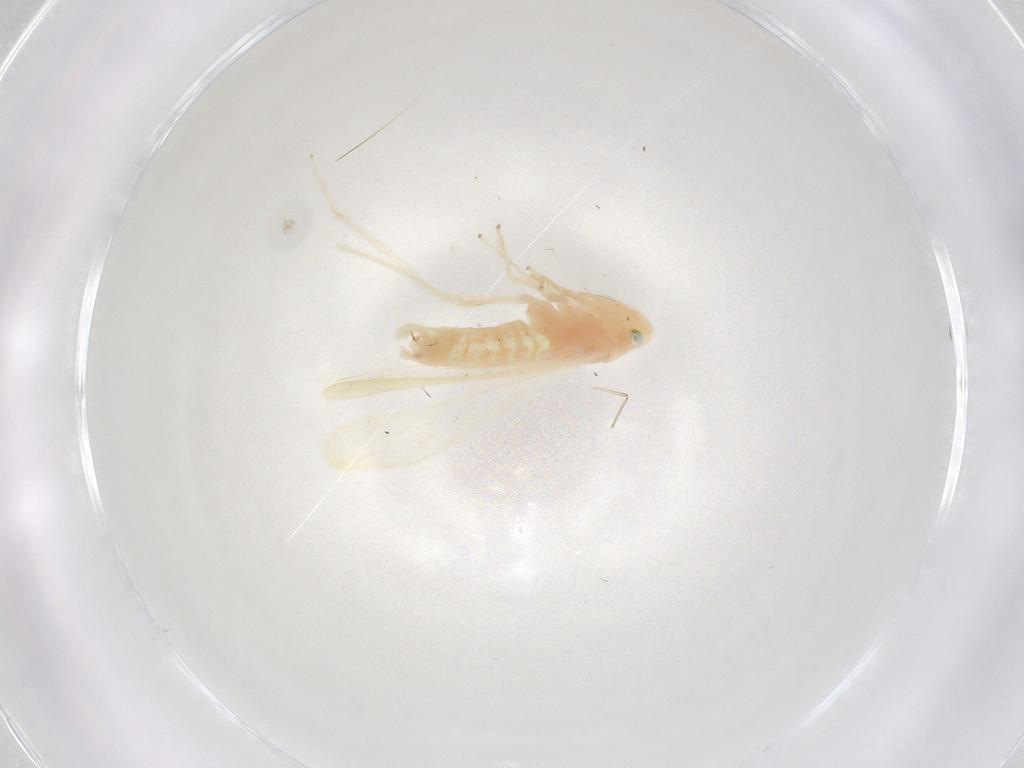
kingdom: Animalia
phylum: Arthropoda
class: Insecta
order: Hemiptera
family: Cicadellidae
